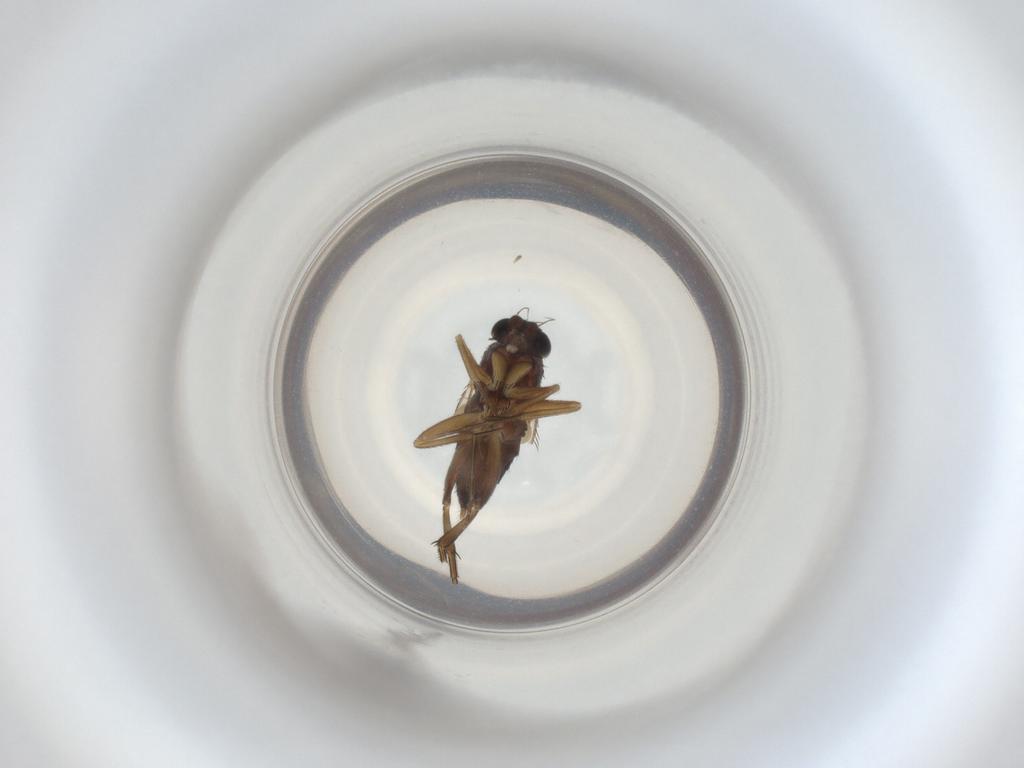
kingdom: Animalia
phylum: Arthropoda
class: Insecta
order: Diptera
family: Phoridae
